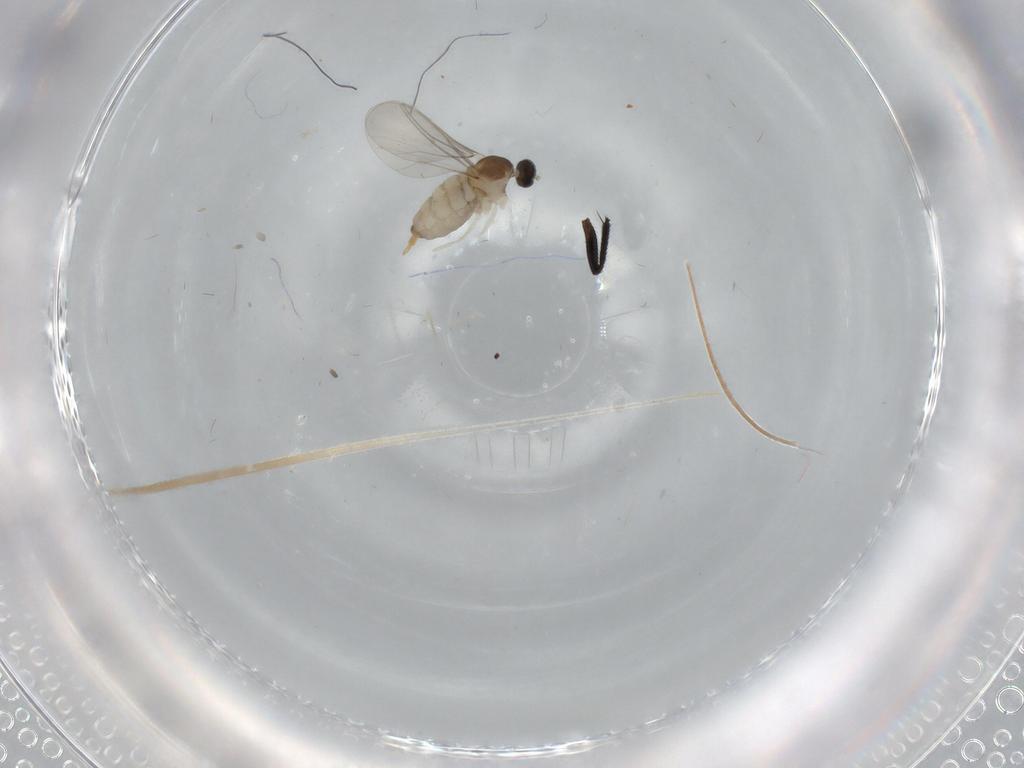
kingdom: Animalia
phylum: Arthropoda
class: Insecta
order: Diptera
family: Cecidomyiidae
